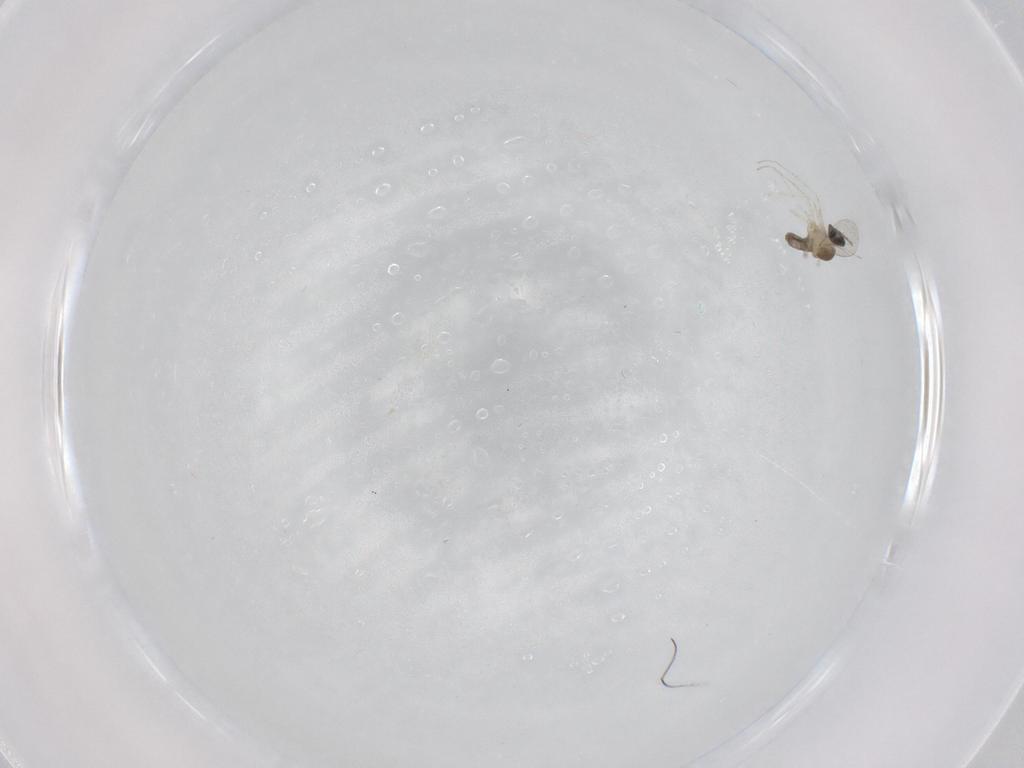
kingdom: Animalia
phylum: Arthropoda
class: Insecta
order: Diptera
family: Cecidomyiidae
